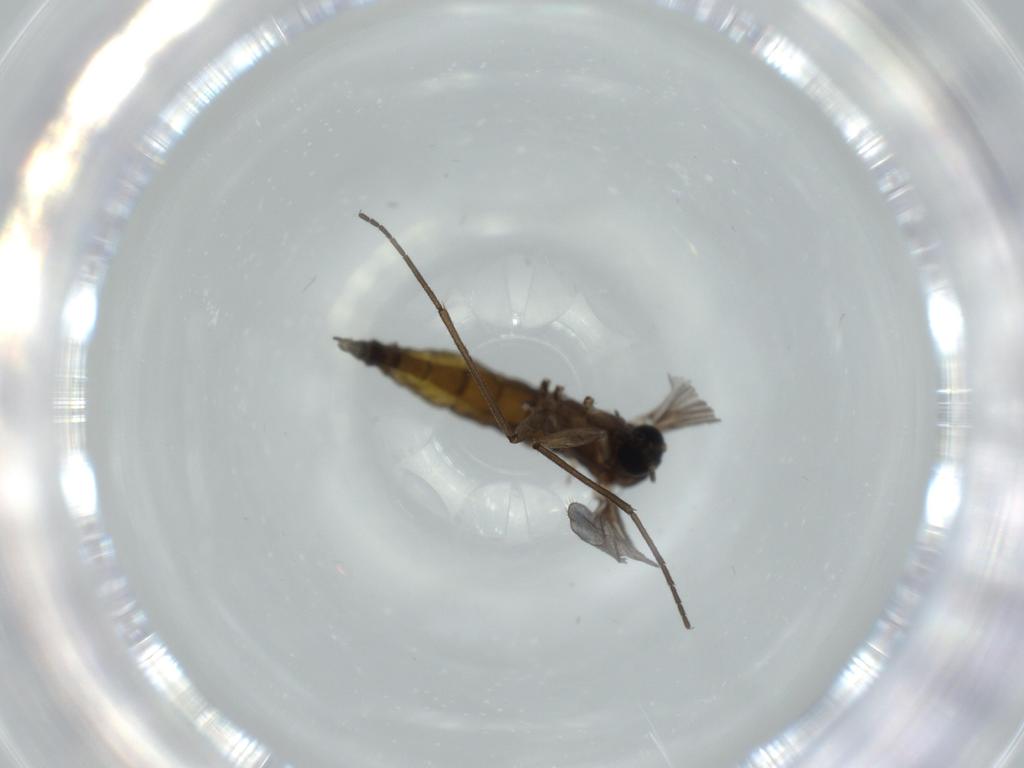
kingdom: Animalia
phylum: Arthropoda
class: Insecta
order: Diptera
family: Sciaridae
